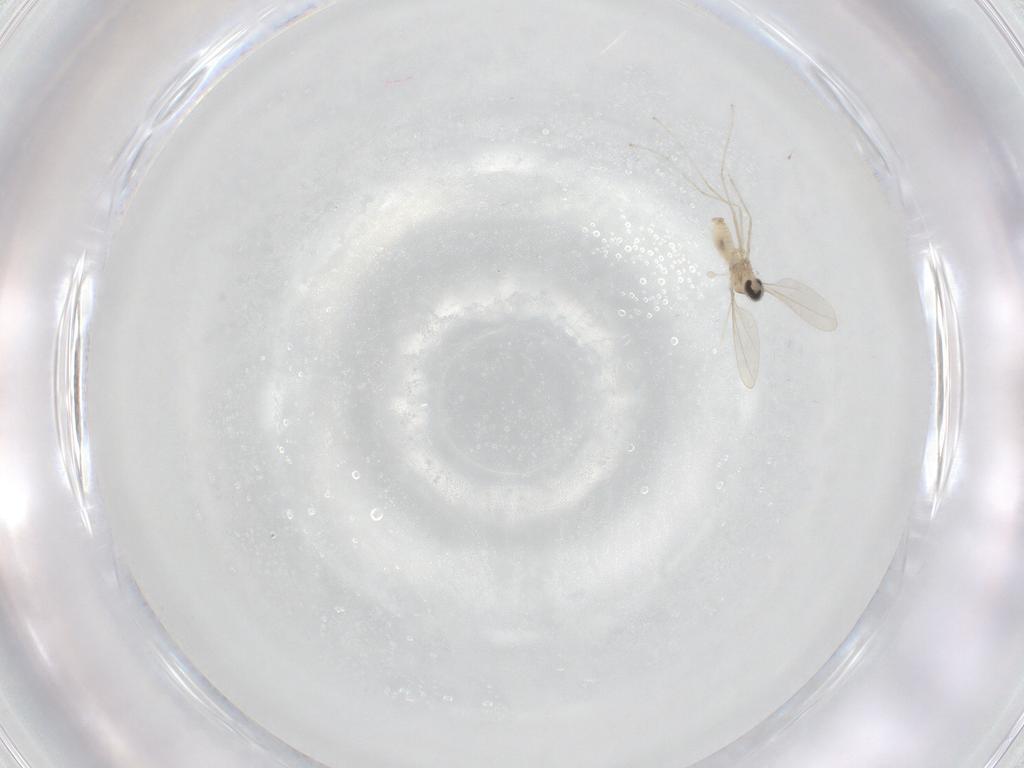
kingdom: Animalia
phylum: Arthropoda
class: Insecta
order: Diptera
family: Cecidomyiidae
